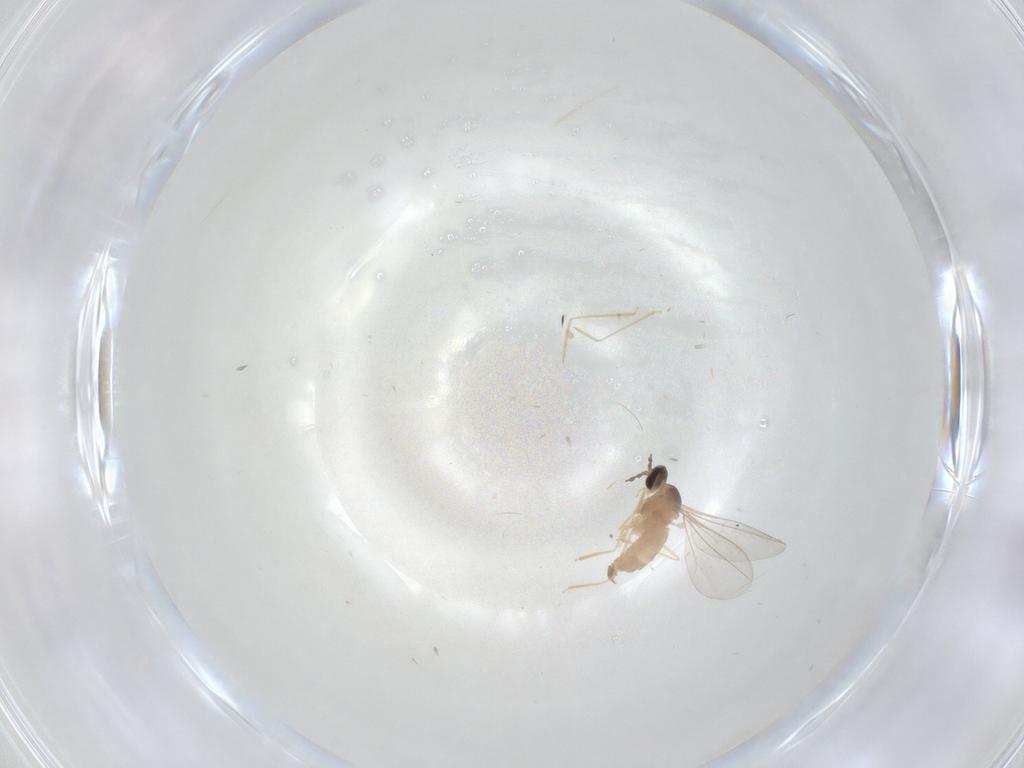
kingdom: Animalia
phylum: Arthropoda
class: Insecta
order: Diptera
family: Cecidomyiidae
